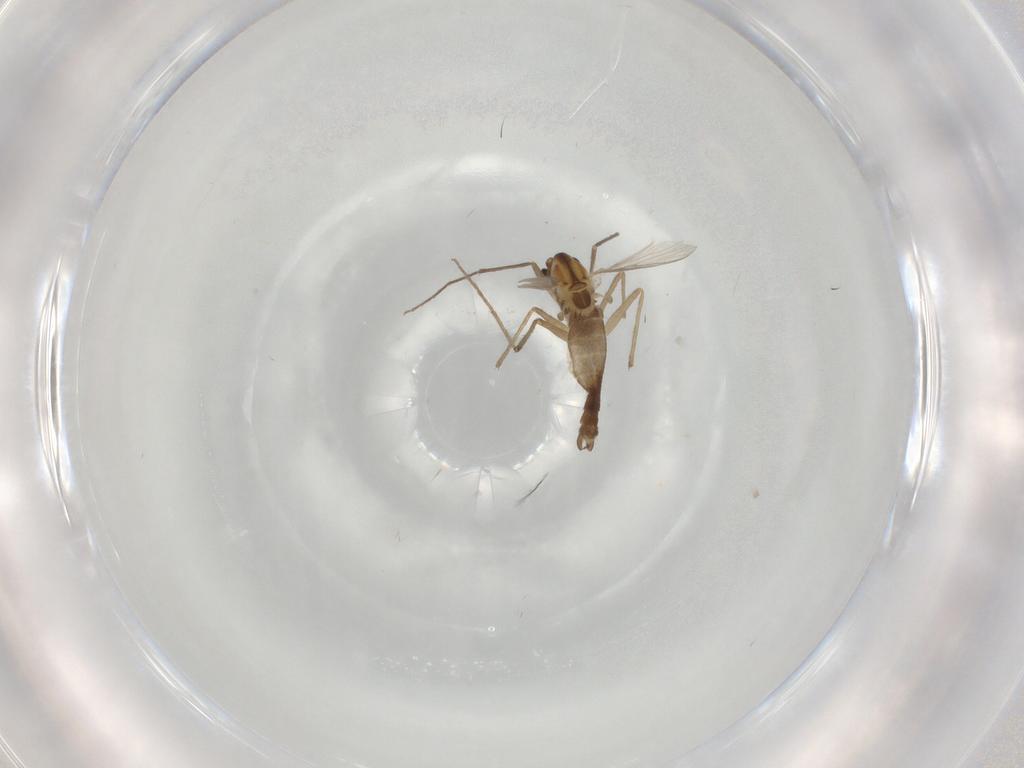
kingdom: Animalia
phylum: Arthropoda
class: Insecta
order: Diptera
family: Chironomidae
